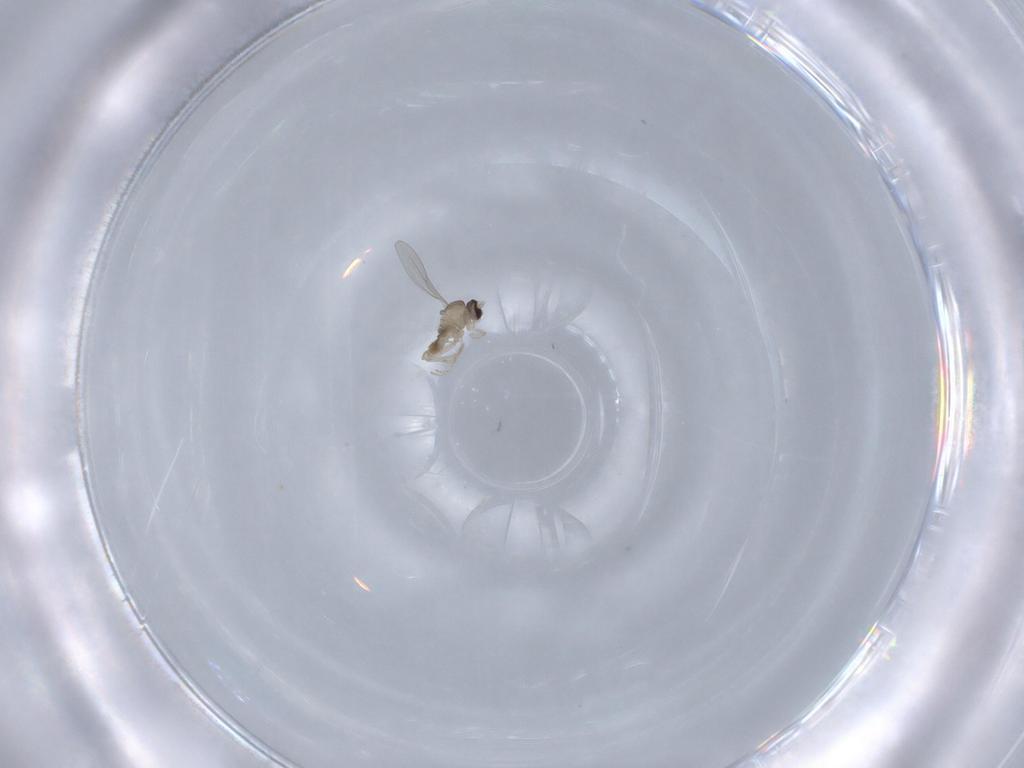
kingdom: Animalia
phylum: Arthropoda
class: Insecta
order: Diptera
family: Cecidomyiidae
